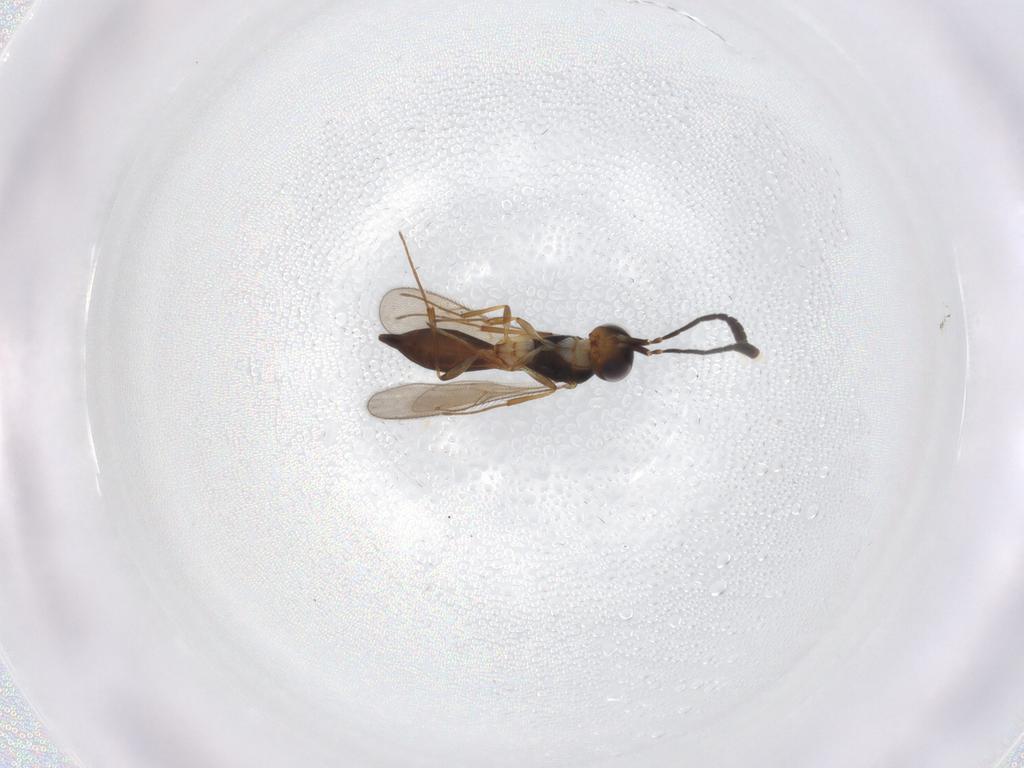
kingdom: Animalia
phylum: Arthropoda
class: Insecta
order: Hymenoptera
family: Scelionidae
